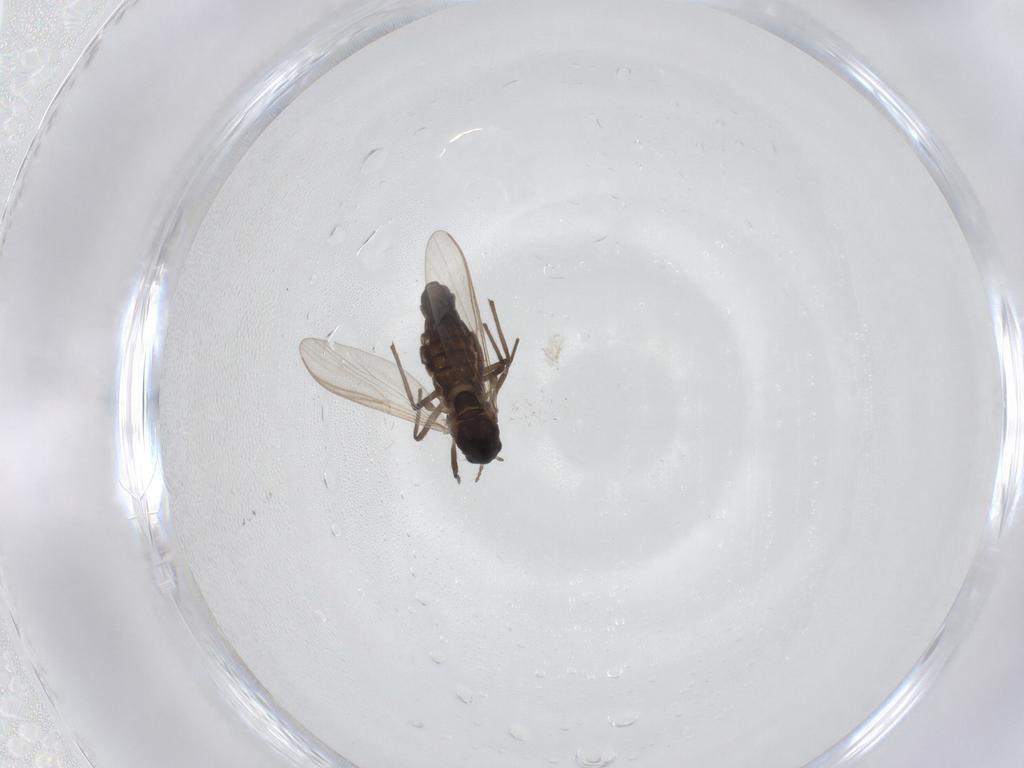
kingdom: Animalia
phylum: Arthropoda
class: Insecta
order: Diptera
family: Chironomidae
